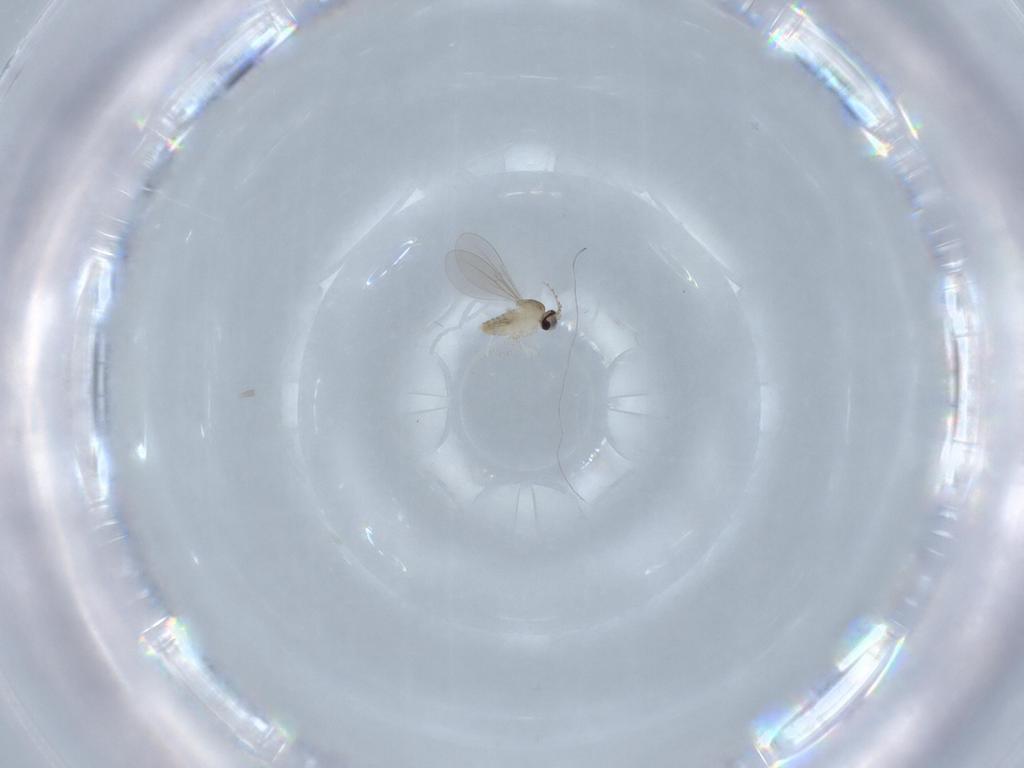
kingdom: Animalia
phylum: Arthropoda
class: Insecta
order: Diptera
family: Cecidomyiidae
